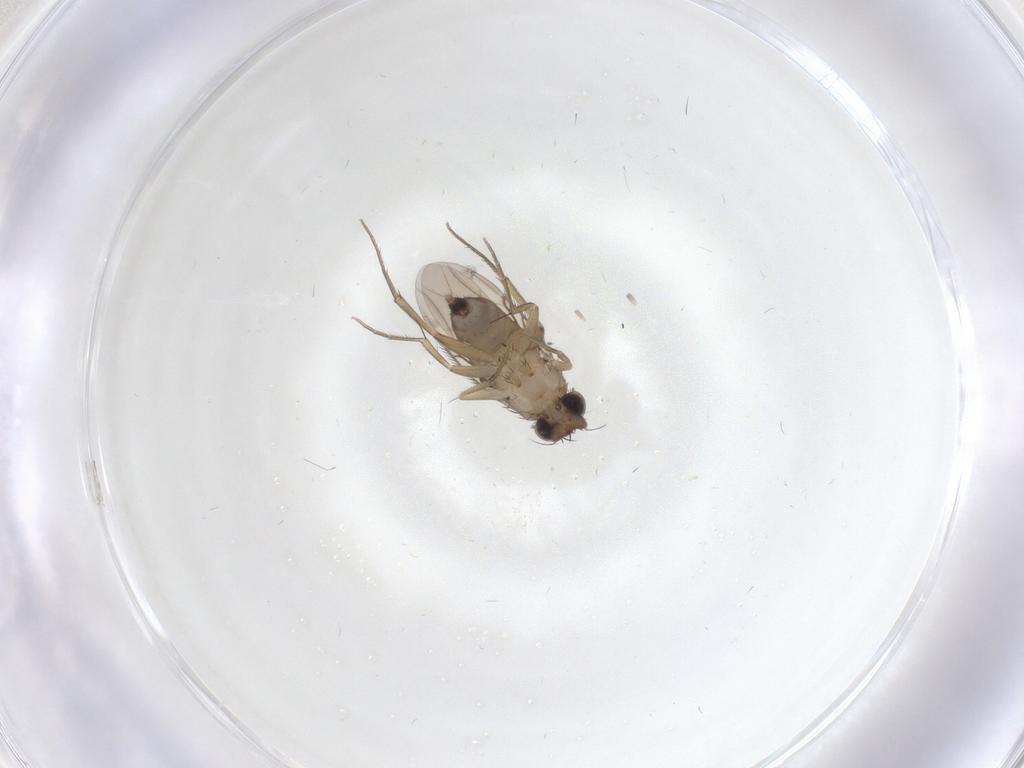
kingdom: Animalia
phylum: Arthropoda
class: Insecta
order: Diptera
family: Phoridae
